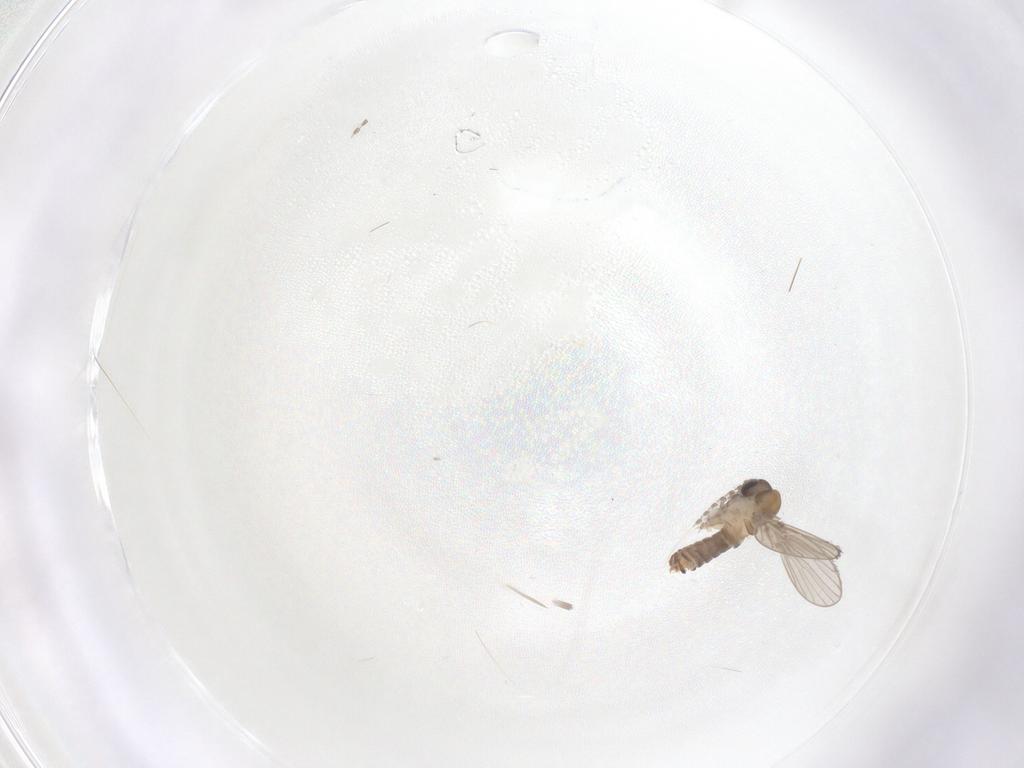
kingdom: Animalia
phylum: Arthropoda
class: Insecta
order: Diptera
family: Psychodidae
